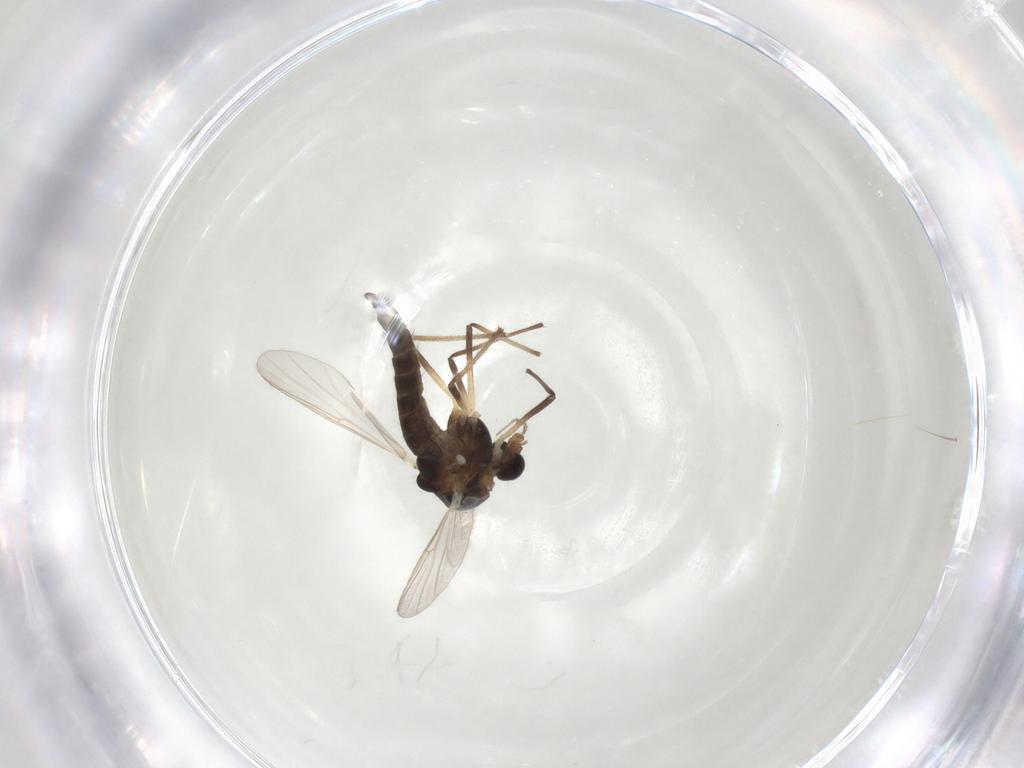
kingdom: Animalia
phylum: Arthropoda
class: Insecta
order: Diptera
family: Chironomidae
